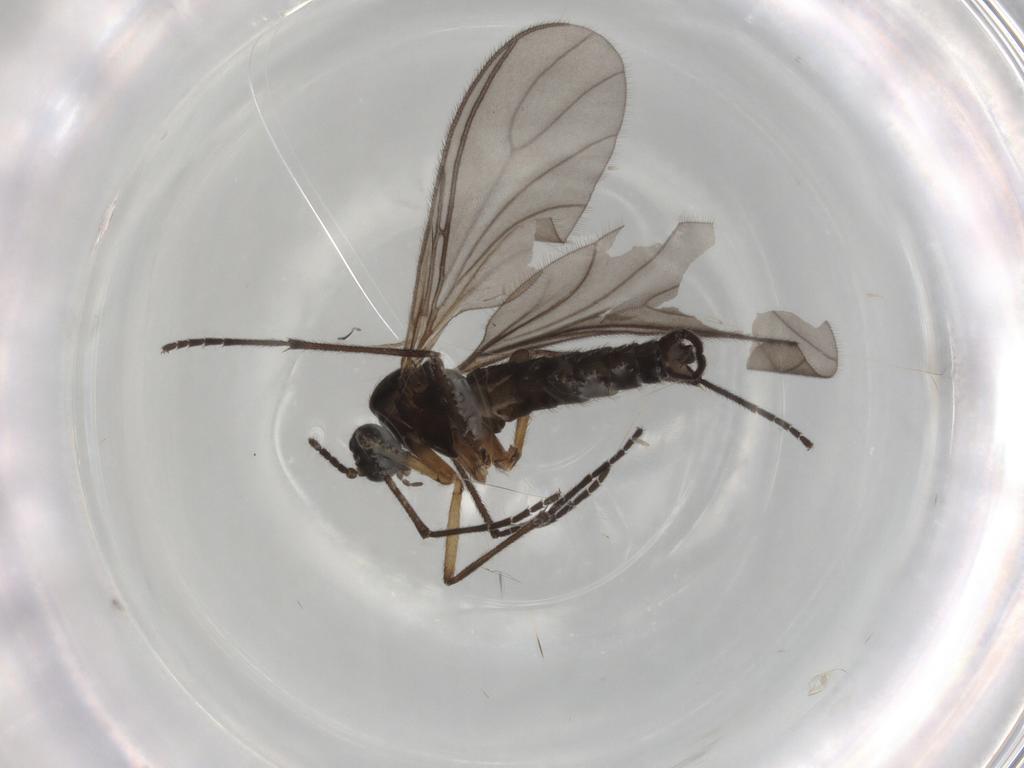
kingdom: Animalia
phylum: Arthropoda
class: Insecta
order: Diptera
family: Sciaridae
